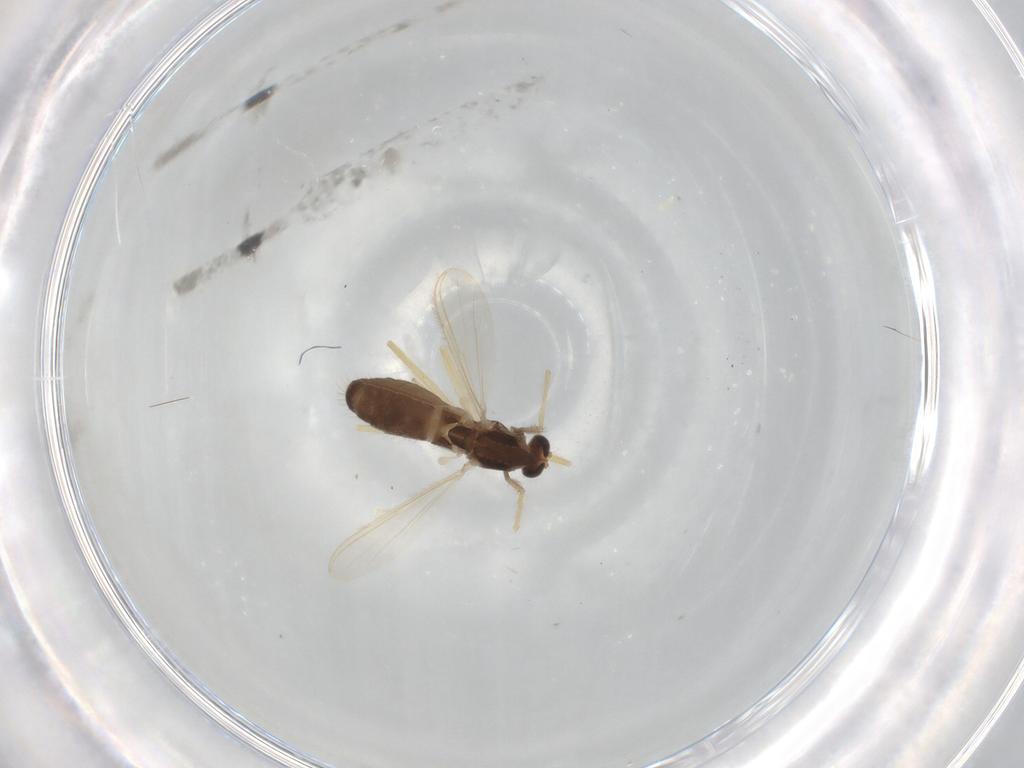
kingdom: Animalia
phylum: Arthropoda
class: Insecta
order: Diptera
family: Chironomidae
